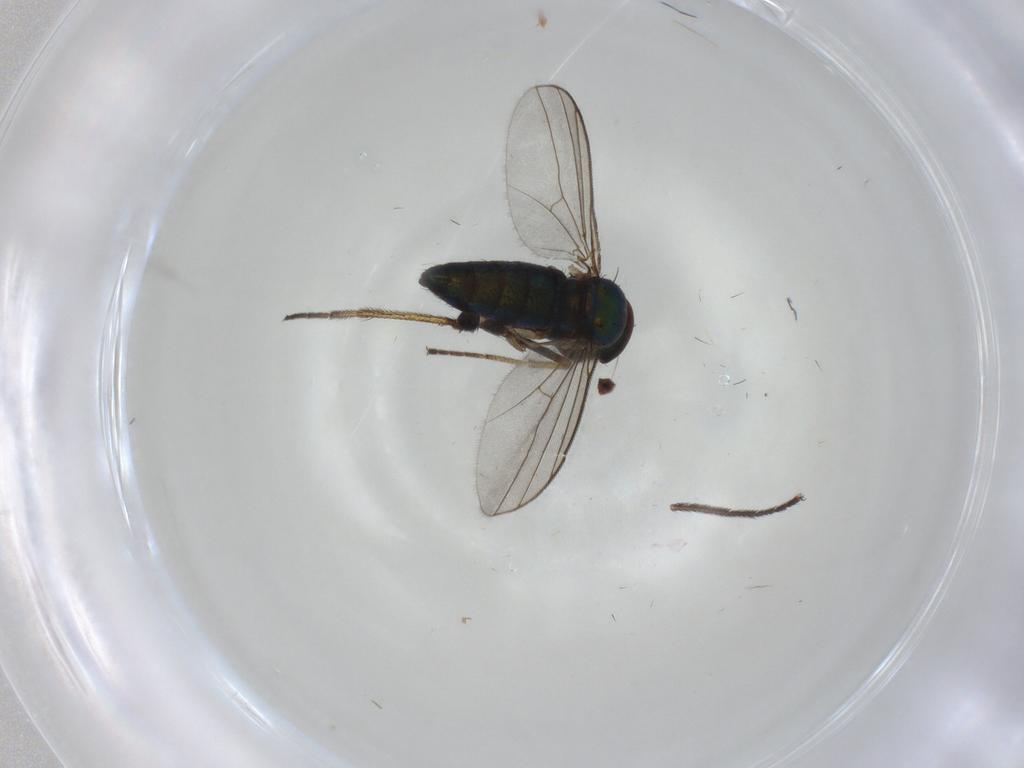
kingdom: Animalia
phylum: Arthropoda
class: Insecta
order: Diptera
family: Dolichopodidae
